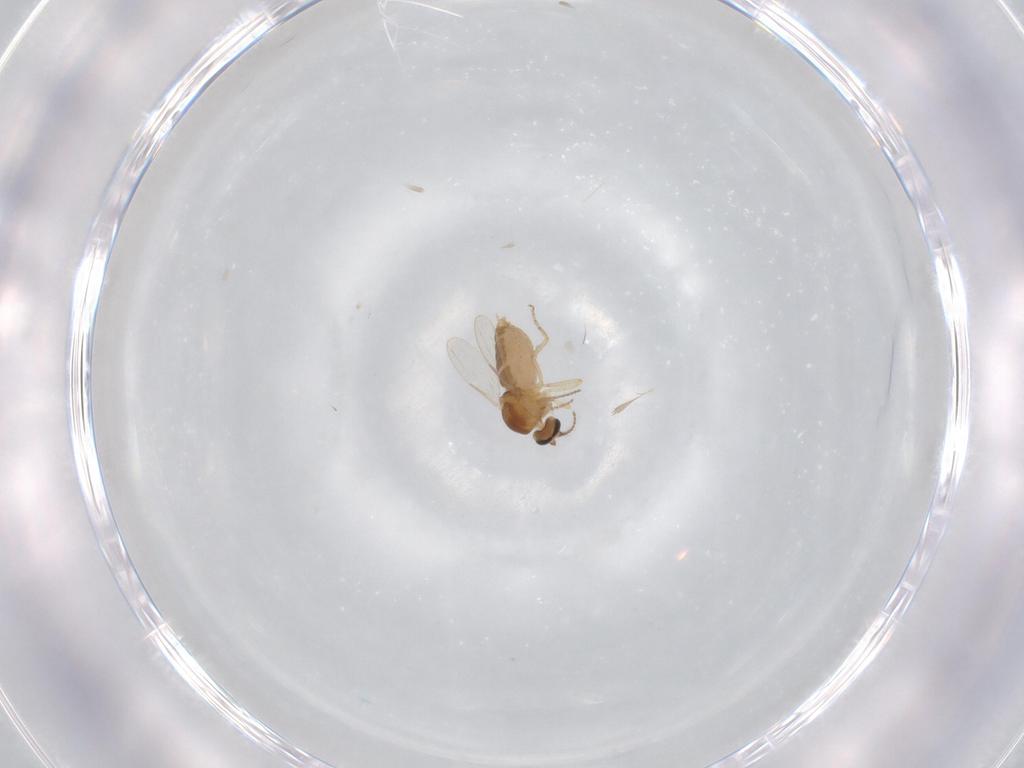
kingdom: Animalia
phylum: Arthropoda
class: Insecta
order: Diptera
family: Ceratopogonidae
